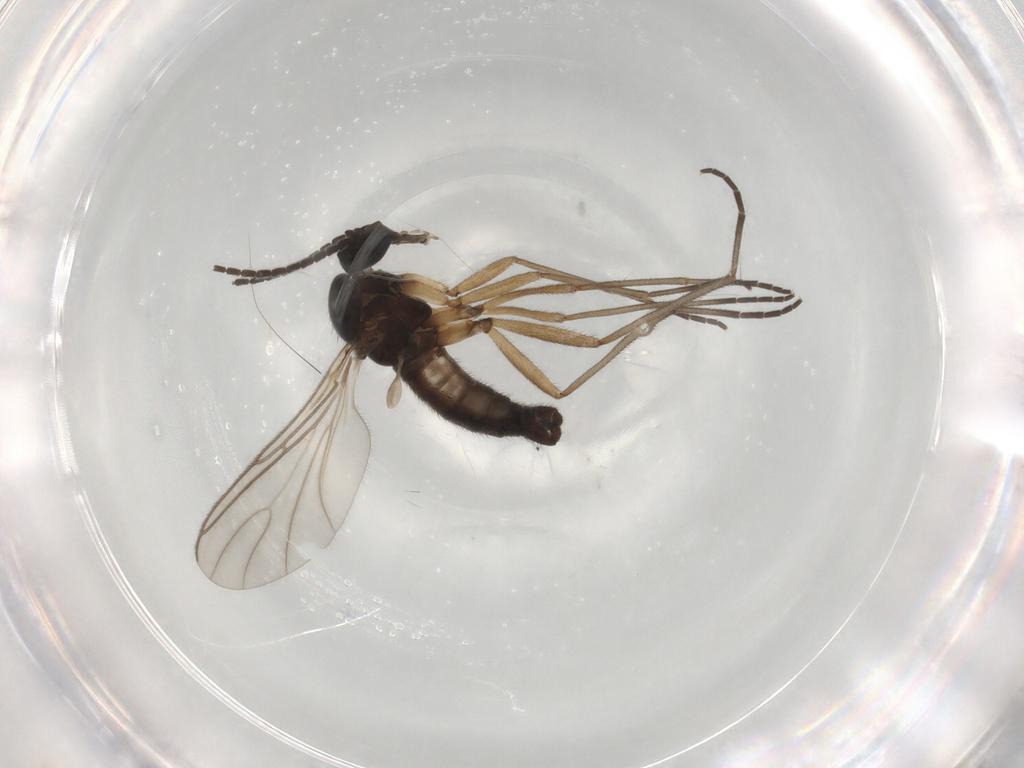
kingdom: Animalia
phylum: Arthropoda
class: Insecta
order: Diptera
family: Sciaridae
